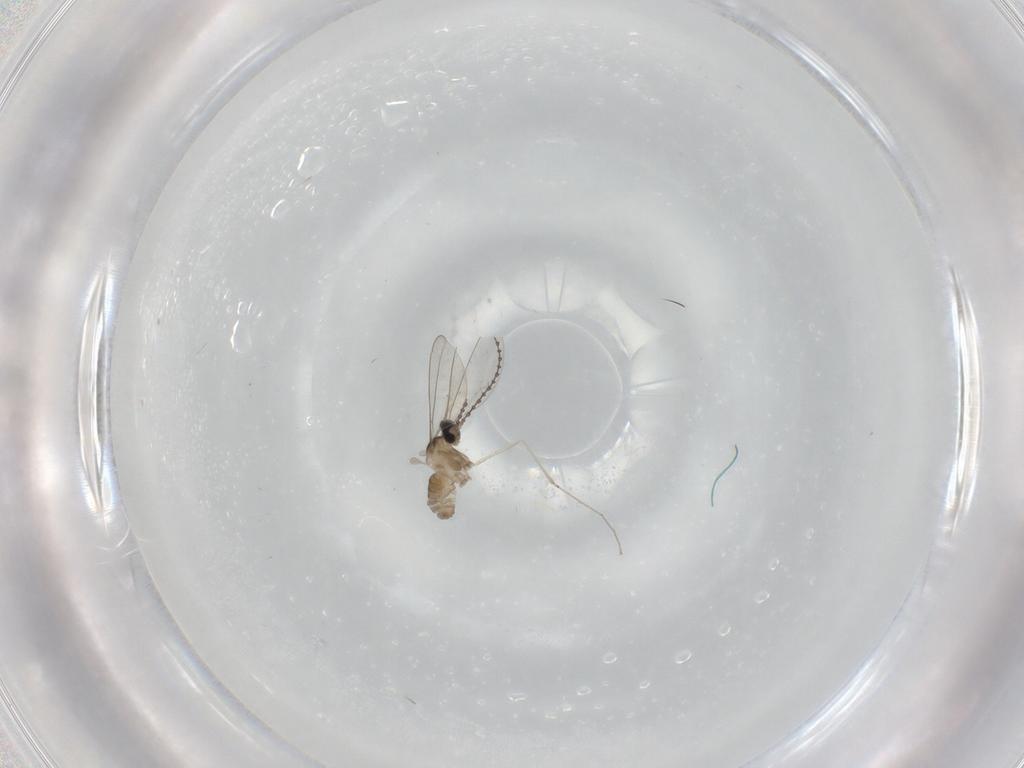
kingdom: Animalia
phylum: Arthropoda
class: Insecta
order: Diptera
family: Cecidomyiidae
